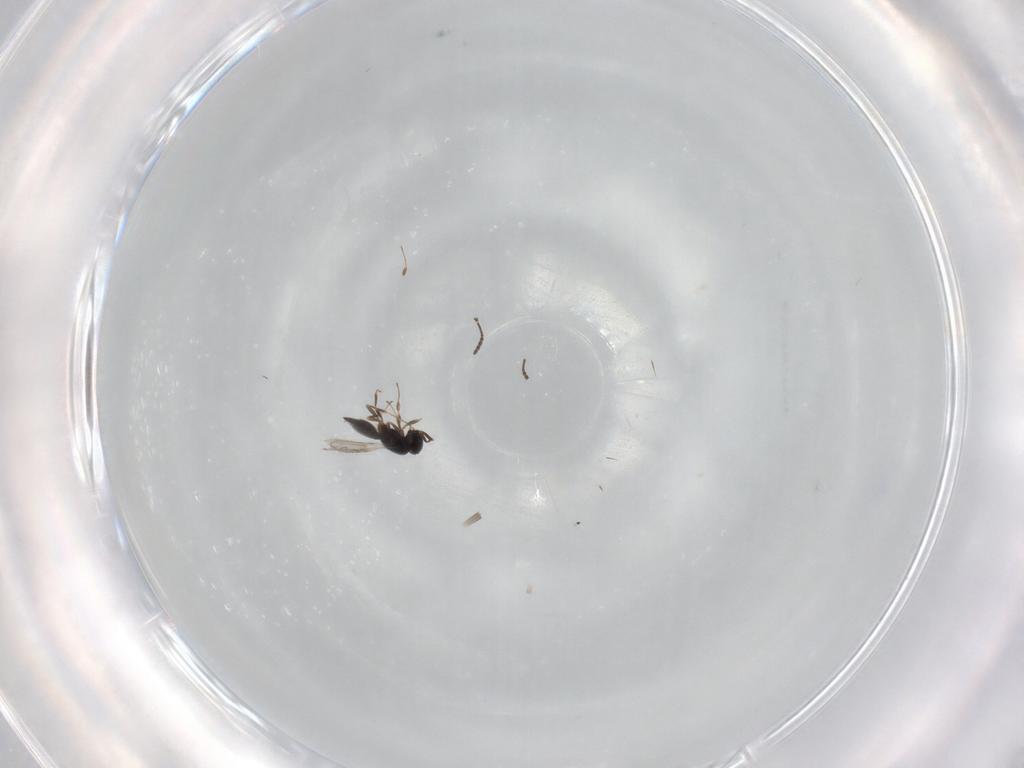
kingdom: Animalia
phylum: Arthropoda
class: Insecta
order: Hymenoptera
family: Scelionidae
